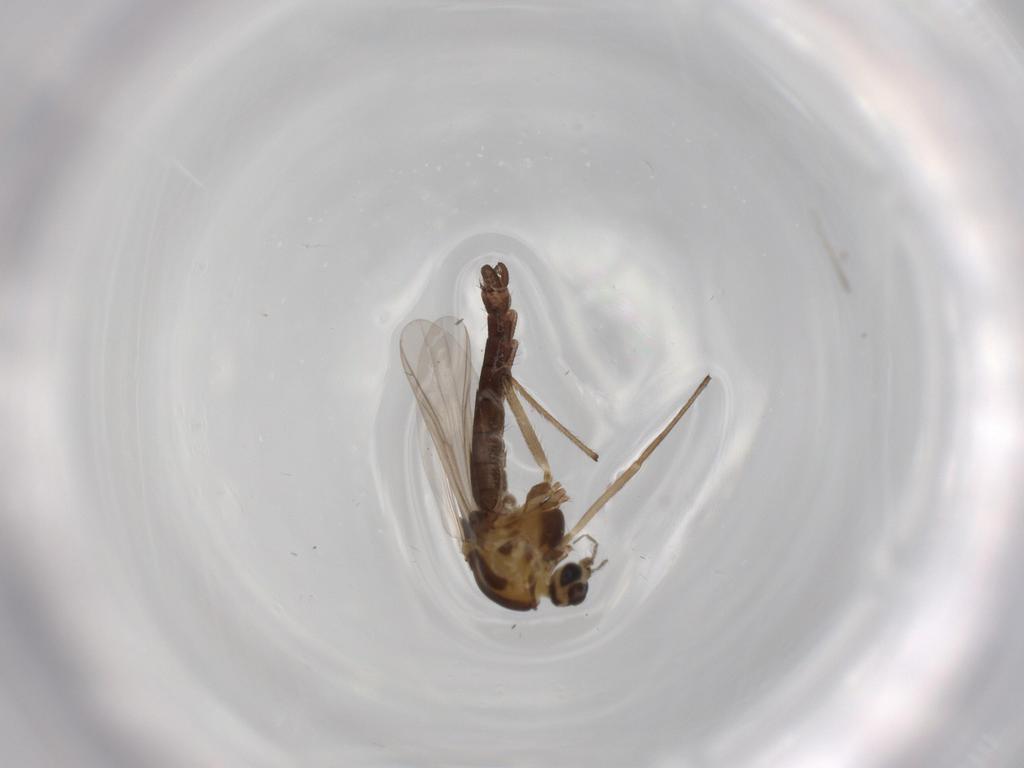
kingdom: Animalia
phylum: Arthropoda
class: Insecta
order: Diptera
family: Chironomidae
